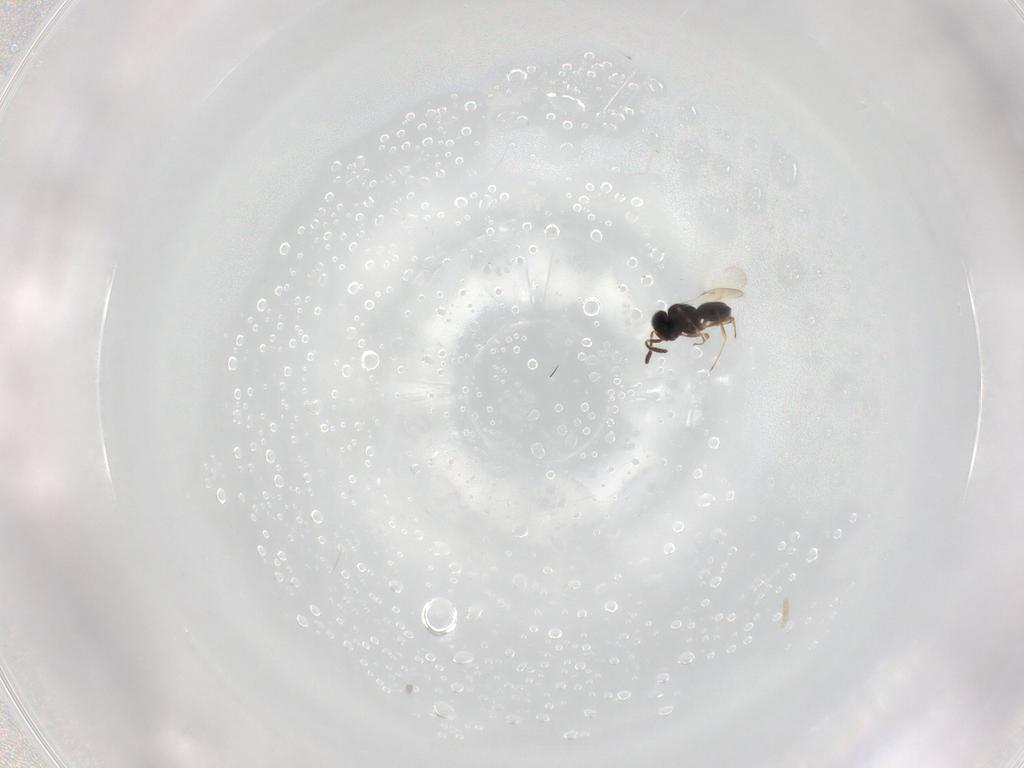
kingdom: Animalia
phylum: Arthropoda
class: Insecta
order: Hymenoptera
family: Scelionidae
